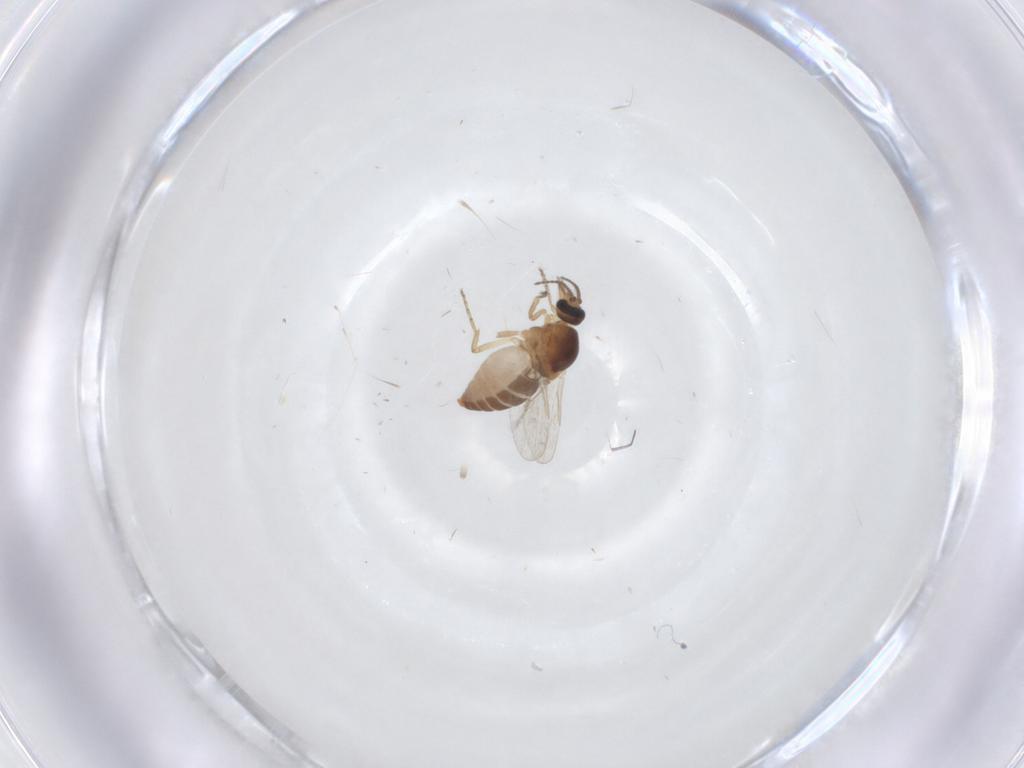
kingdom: Animalia
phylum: Arthropoda
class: Insecta
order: Diptera
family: Ceratopogonidae
